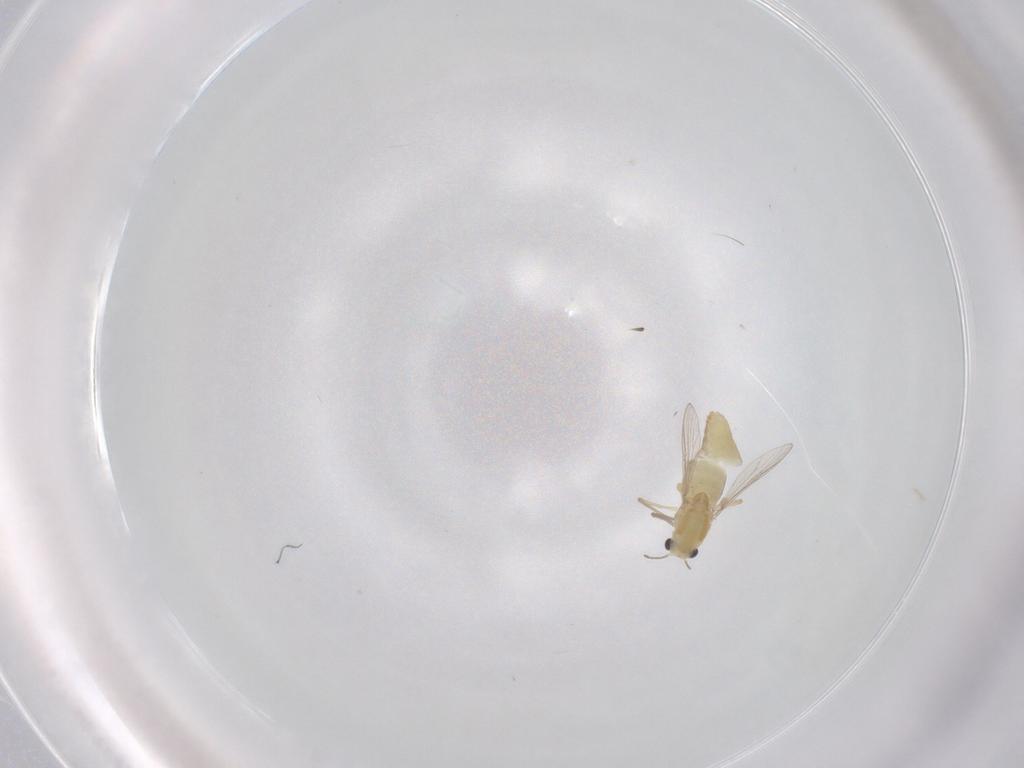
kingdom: Animalia
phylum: Arthropoda
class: Insecta
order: Diptera
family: Chironomidae
